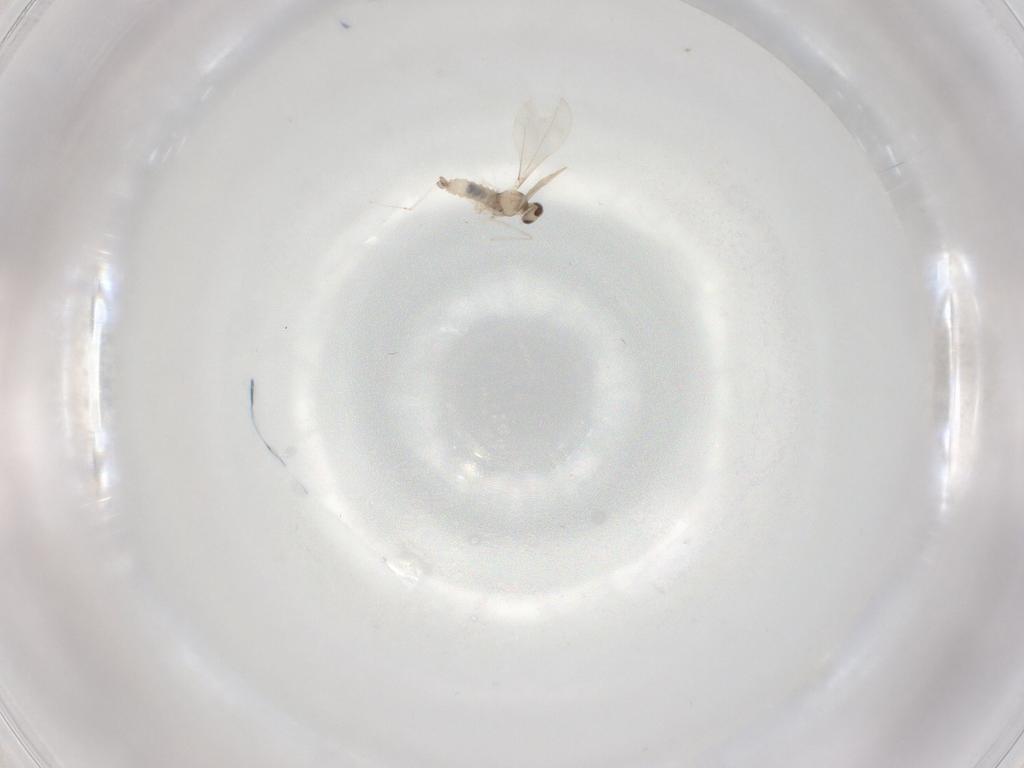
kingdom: Animalia
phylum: Arthropoda
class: Insecta
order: Diptera
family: Cecidomyiidae
